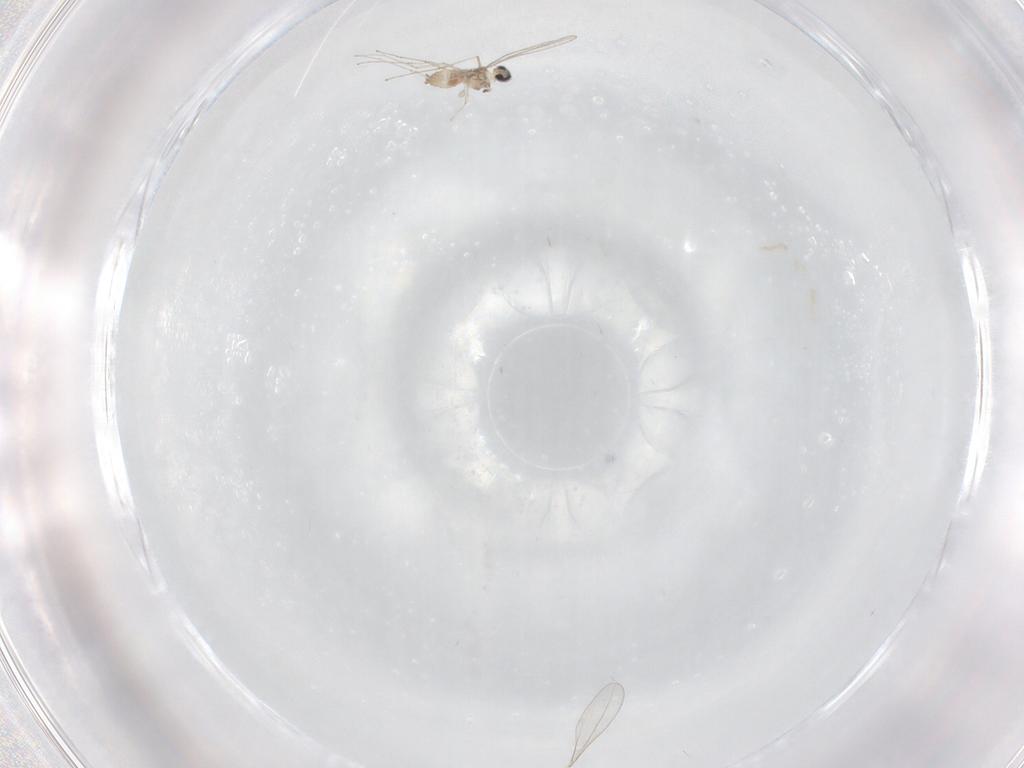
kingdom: Animalia
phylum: Arthropoda
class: Insecta
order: Diptera
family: Cecidomyiidae
